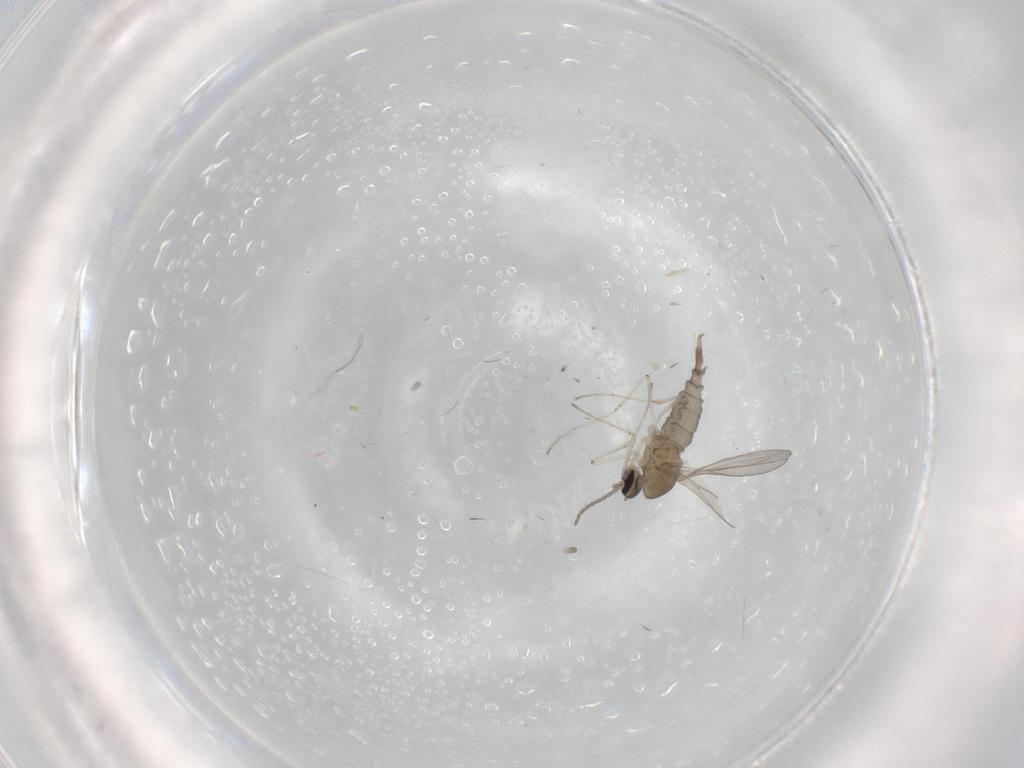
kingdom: Animalia
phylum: Arthropoda
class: Insecta
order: Diptera
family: Cecidomyiidae
